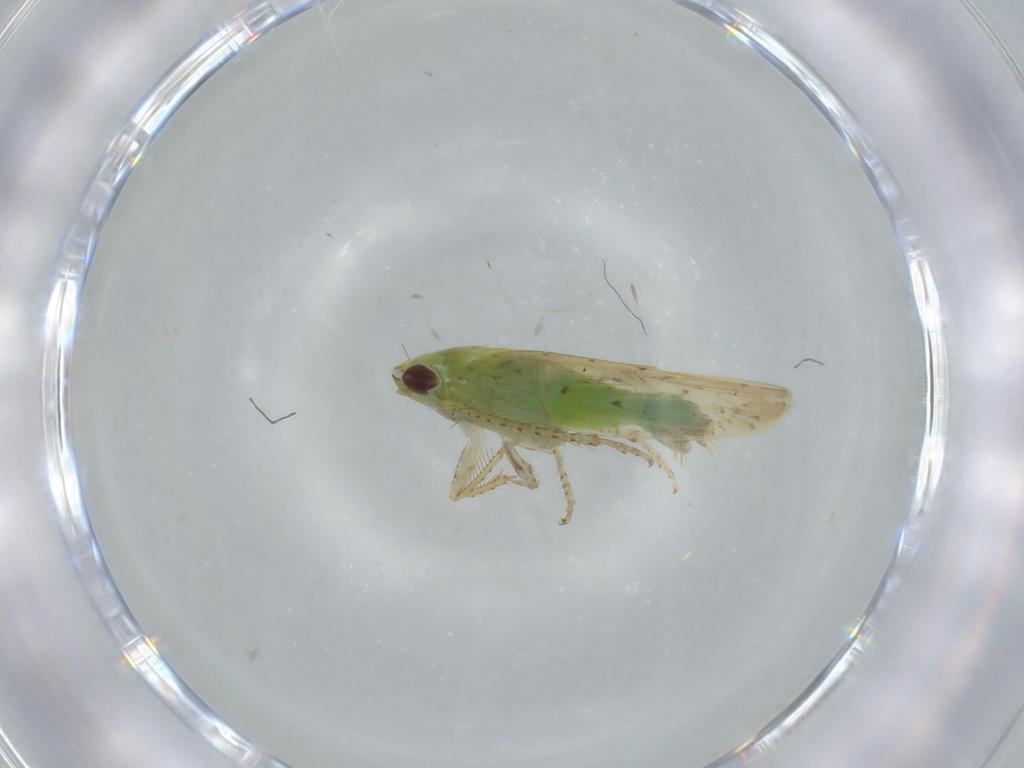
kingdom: Animalia
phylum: Arthropoda
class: Insecta
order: Hemiptera
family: Cicadellidae
